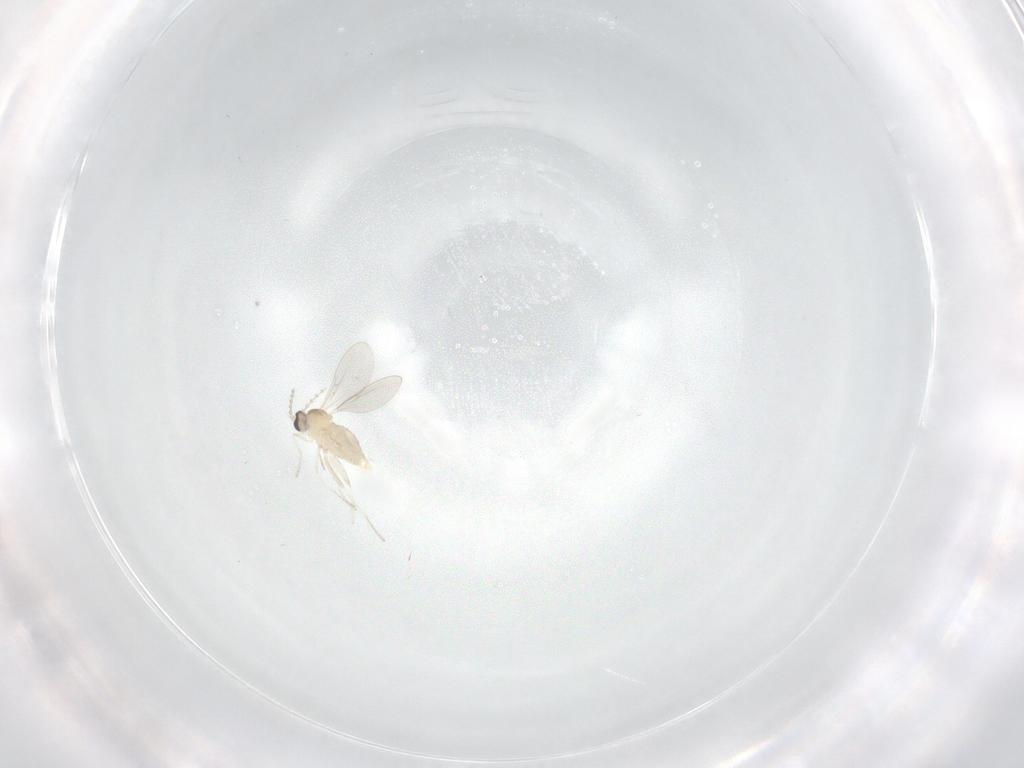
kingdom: Animalia
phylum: Arthropoda
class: Insecta
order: Diptera
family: Cecidomyiidae
